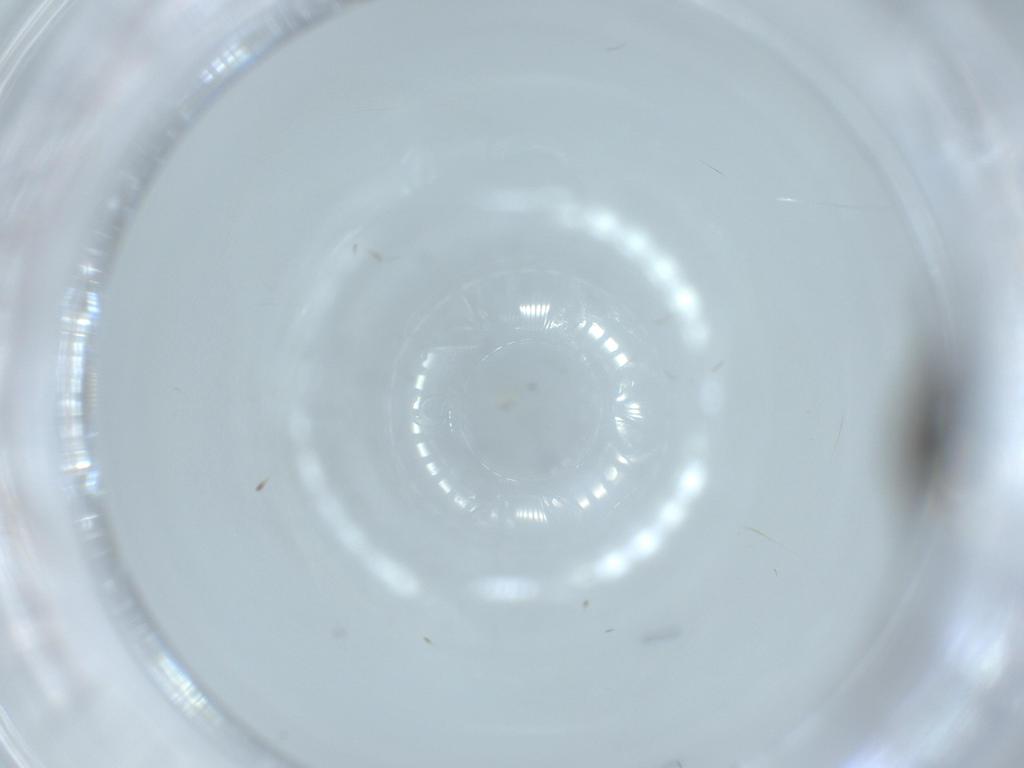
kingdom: Animalia
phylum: Arthropoda
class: Insecta
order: Diptera
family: Sciaridae
